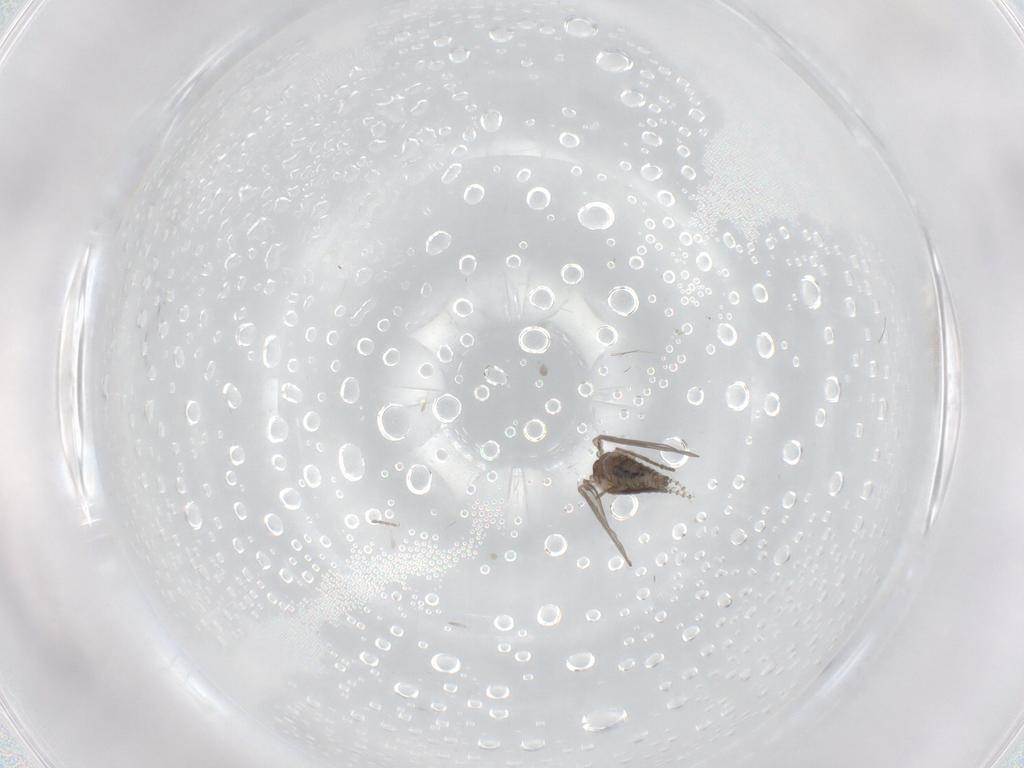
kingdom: Animalia
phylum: Arthropoda
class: Insecta
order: Diptera
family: Psychodidae
